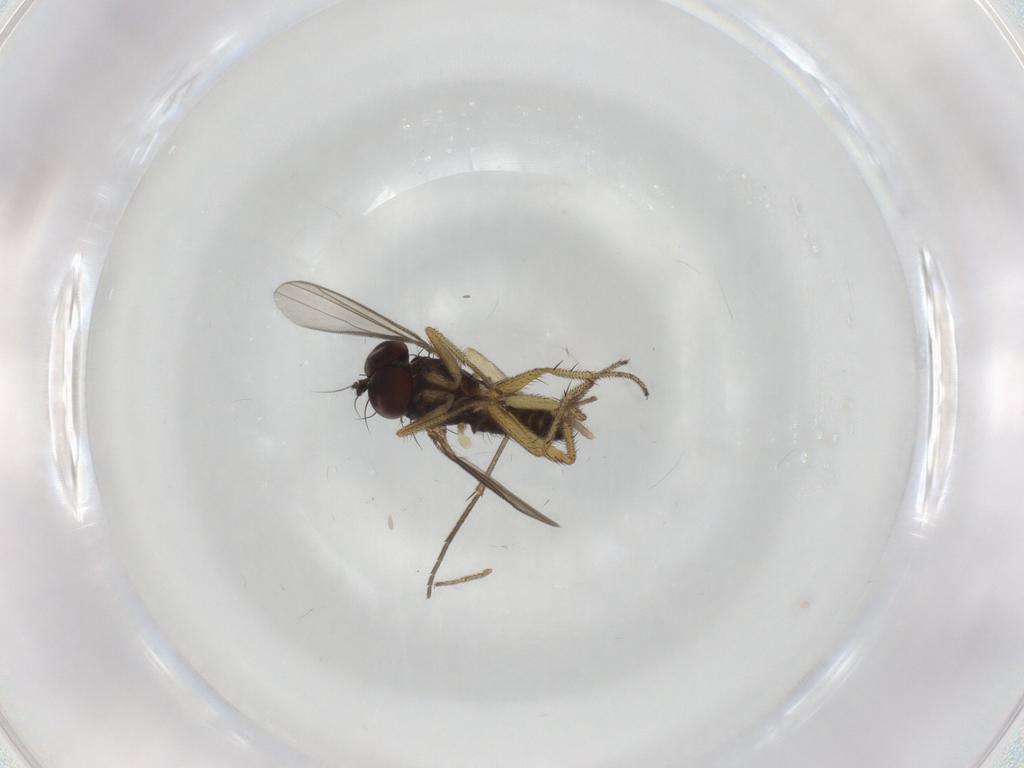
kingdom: Animalia
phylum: Arthropoda
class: Insecta
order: Diptera
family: Sciaridae
